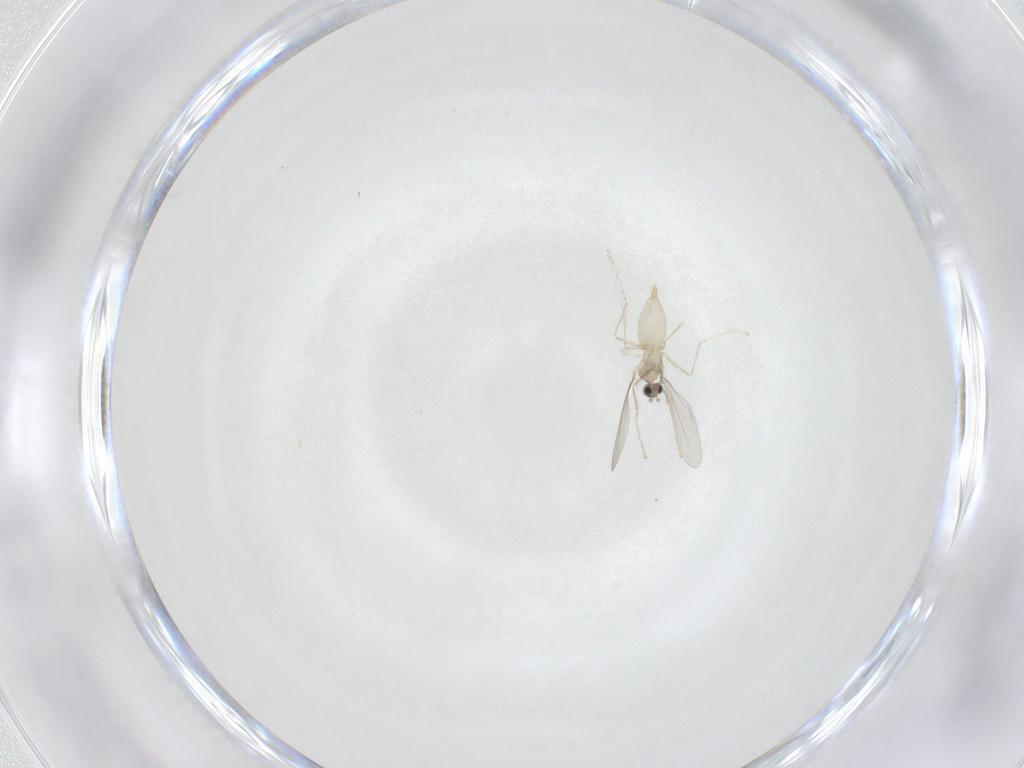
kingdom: Animalia
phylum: Arthropoda
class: Insecta
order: Diptera
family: Cecidomyiidae
